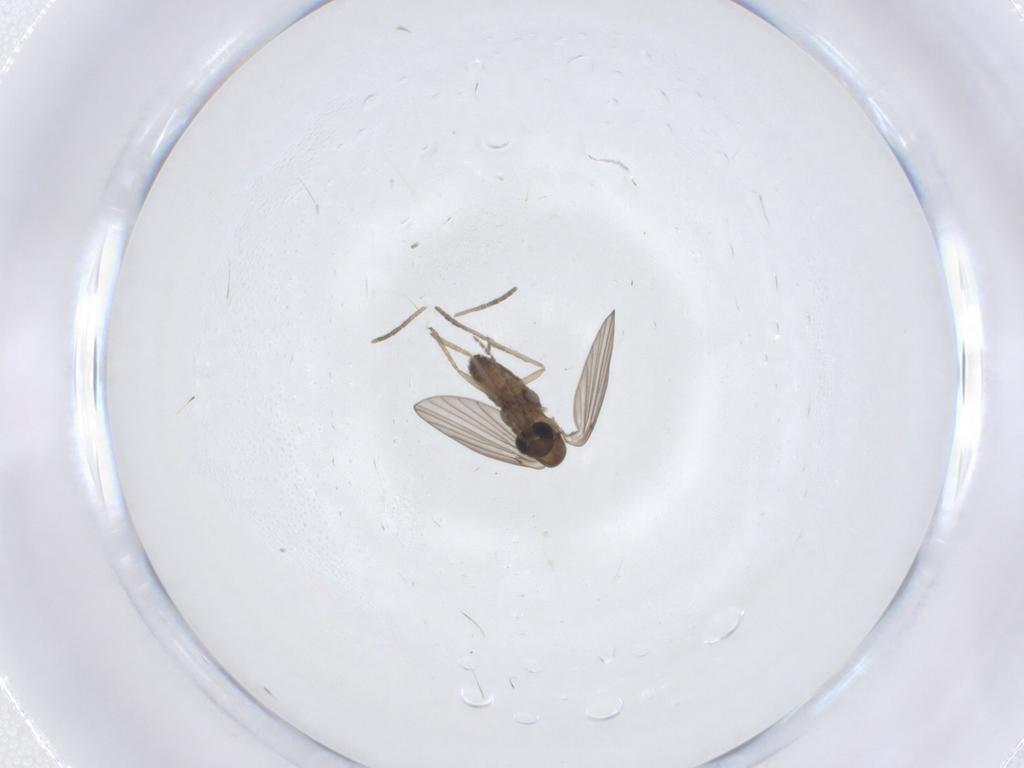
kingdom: Animalia
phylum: Arthropoda
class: Insecta
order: Diptera
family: Psychodidae
